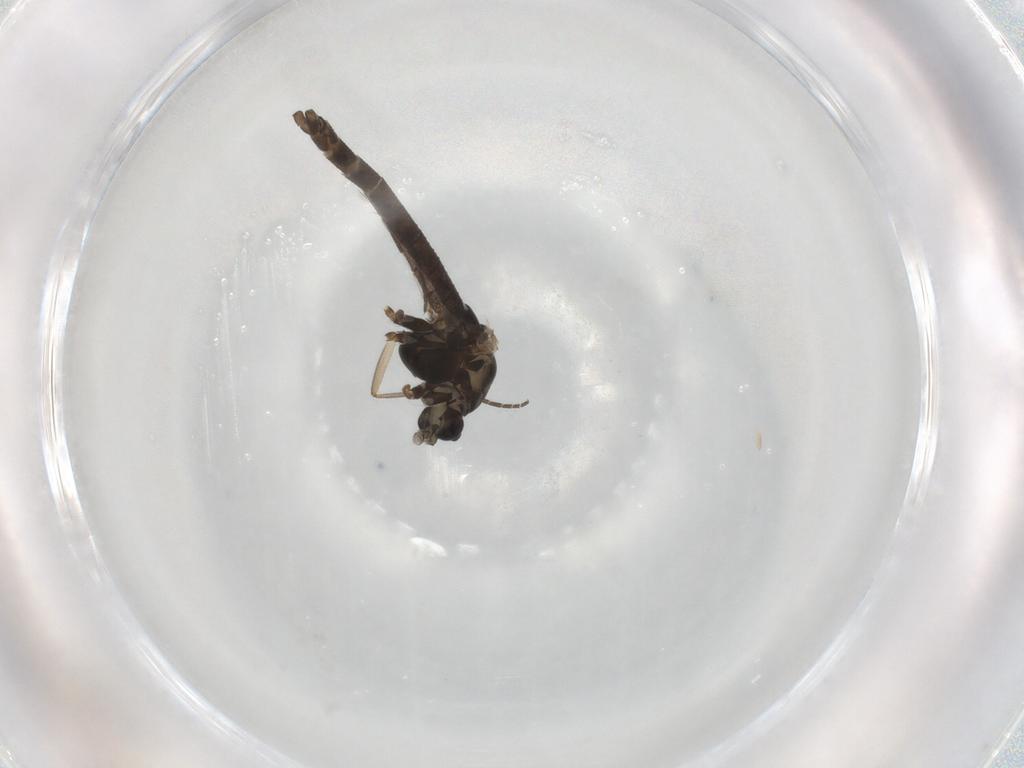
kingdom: Animalia
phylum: Arthropoda
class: Insecta
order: Diptera
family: Chironomidae
